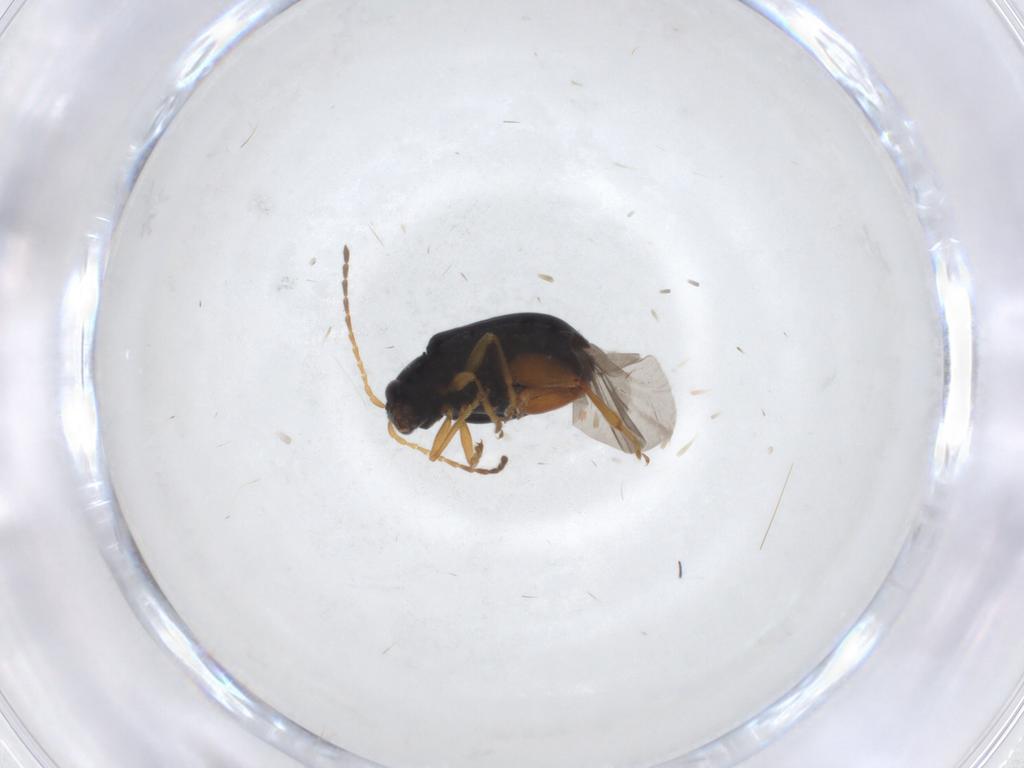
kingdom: Animalia
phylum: Arthropoda
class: Insecta
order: Coleoptera
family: Chrysomelidae
